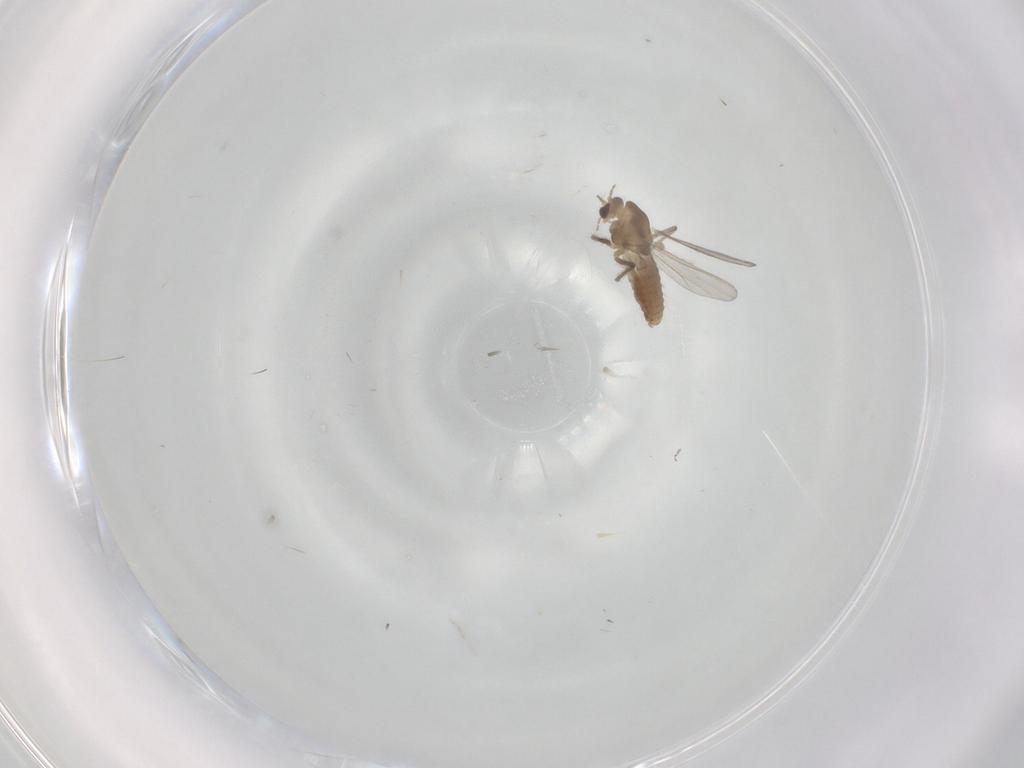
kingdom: Animalia
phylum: Arthropoda
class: Insecta
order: Diptera
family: Chironomidae
